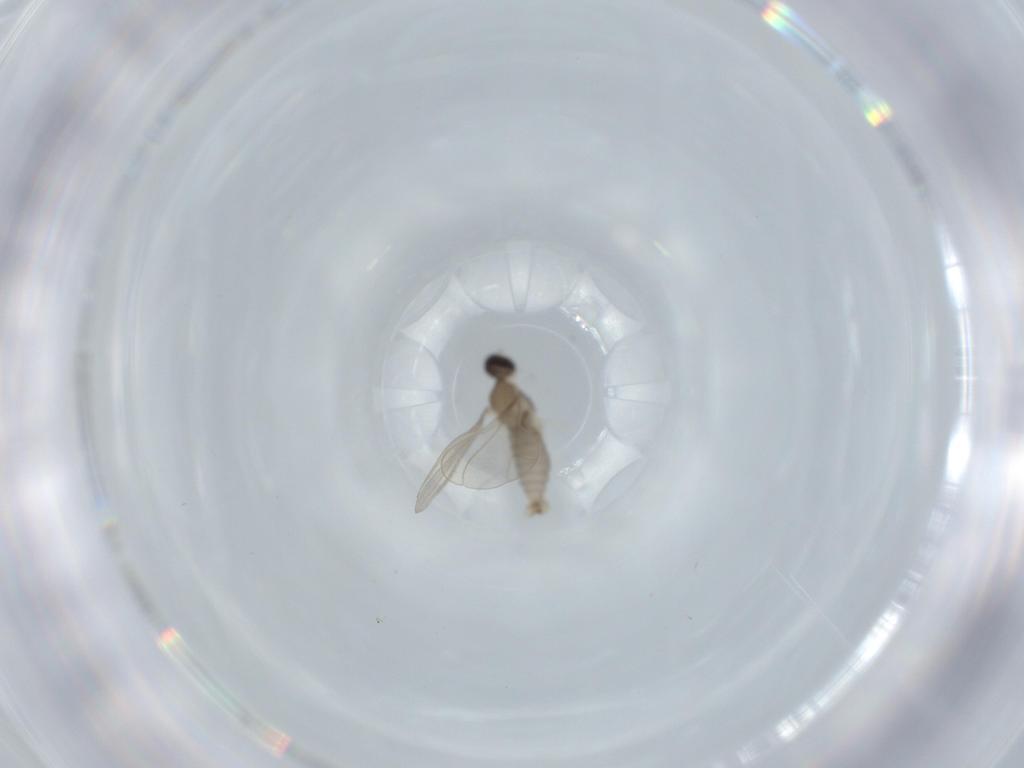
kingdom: Animalia
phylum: Arthropoda
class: Insecta
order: Diptera
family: Cecidomyiidae
